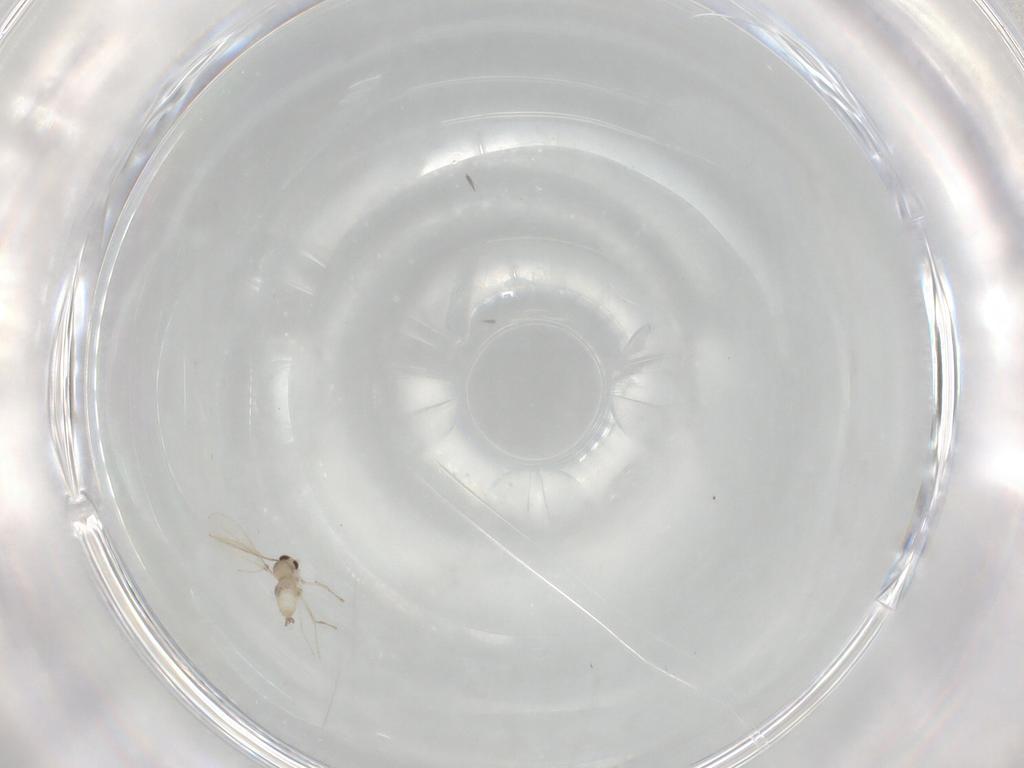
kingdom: Animalia
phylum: Arthropoda
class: Insecta
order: Diptera
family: Cecidomyiidae
